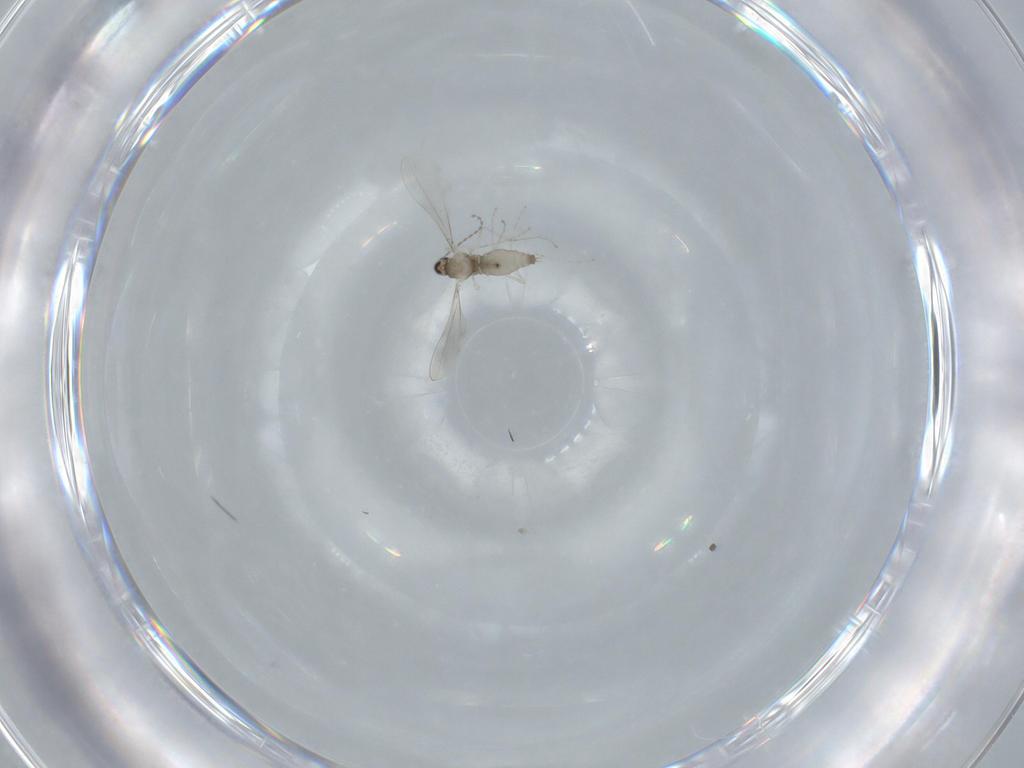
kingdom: Animalia
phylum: Arthropoda
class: Insecta
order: Diptera
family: Cecidomyiidae
